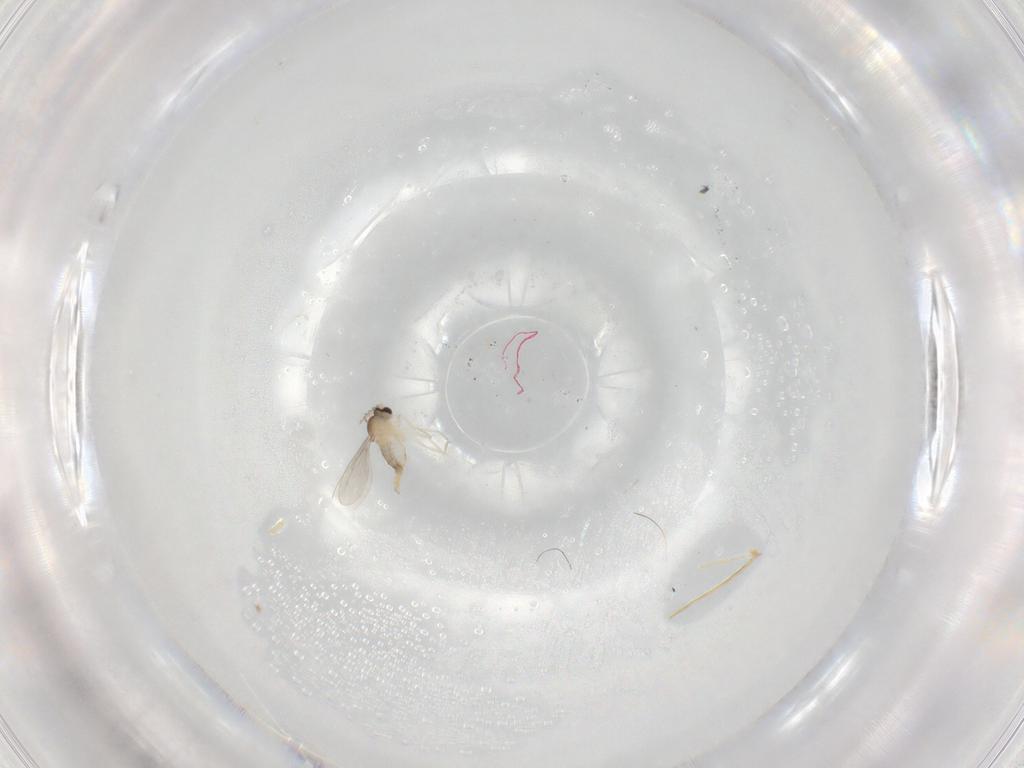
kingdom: Animalia
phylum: Arthropoda
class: Insecta
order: Diptera
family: Cecidomyiidae
